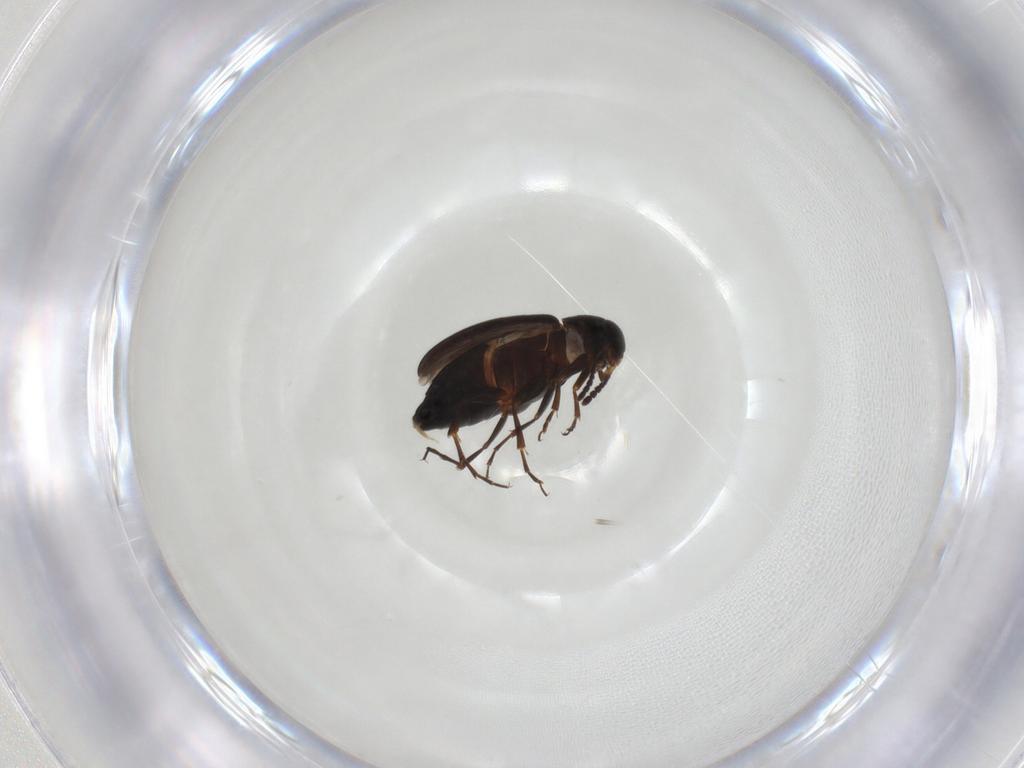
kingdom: Animalia
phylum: Arthropoda
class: Insecta
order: Coleoptera
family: Scraptiidae
